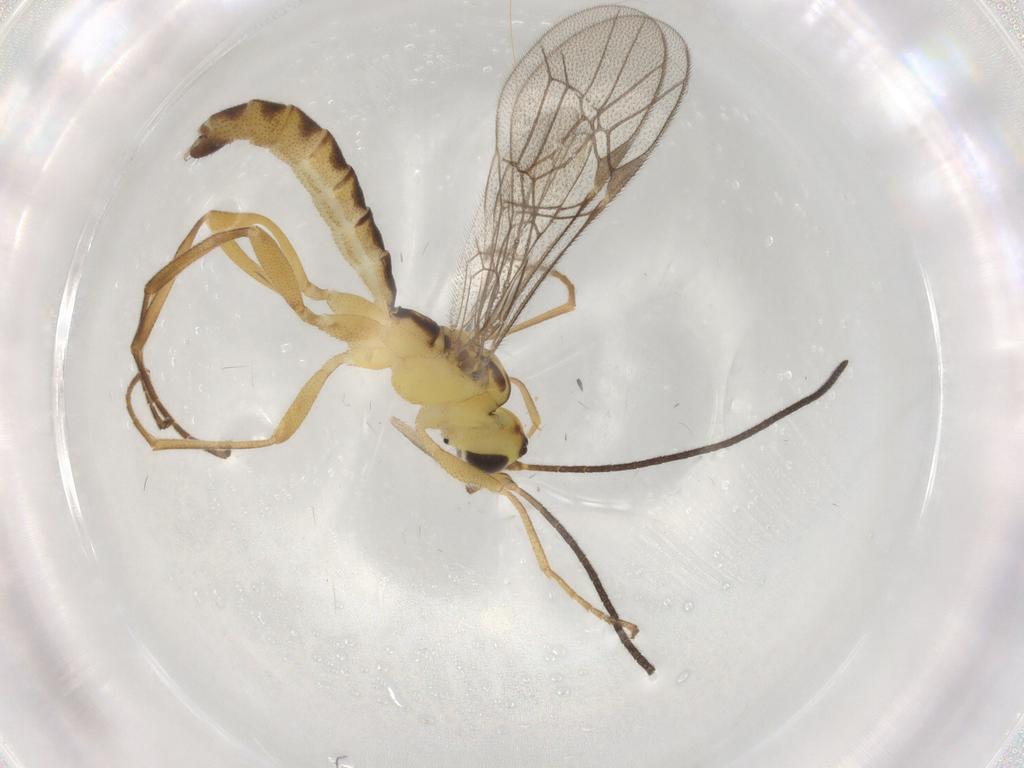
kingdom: Animalia
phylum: Arthropoda
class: Insecta
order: Hymenoptera
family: Ichneumonidae
